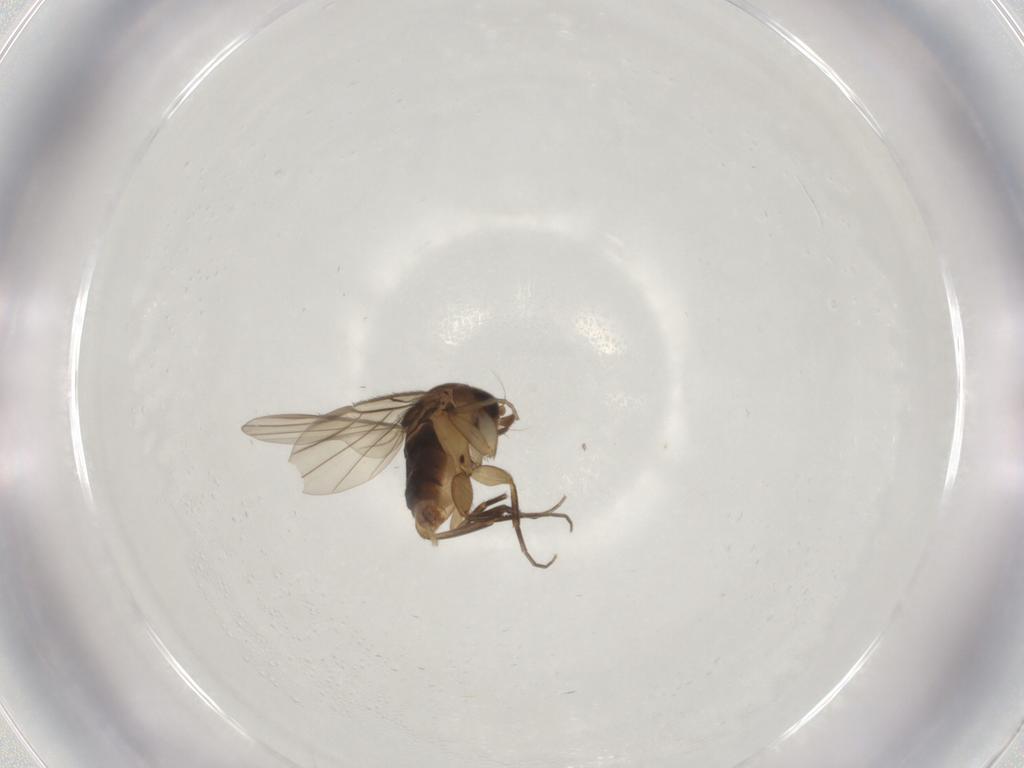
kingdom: Animalia
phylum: Arthropoda
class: Insecta
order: Diptera
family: Phoridae
